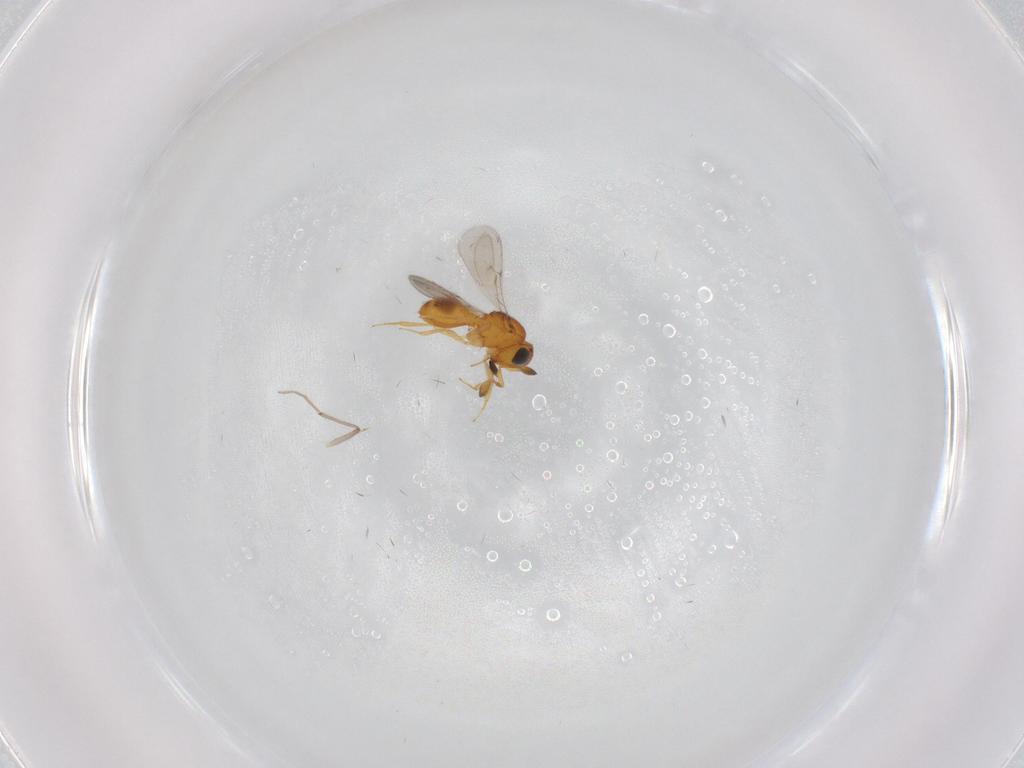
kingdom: Animalia
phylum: Arthropoda
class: Insecta
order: Hymenoptera
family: Scelionidae
